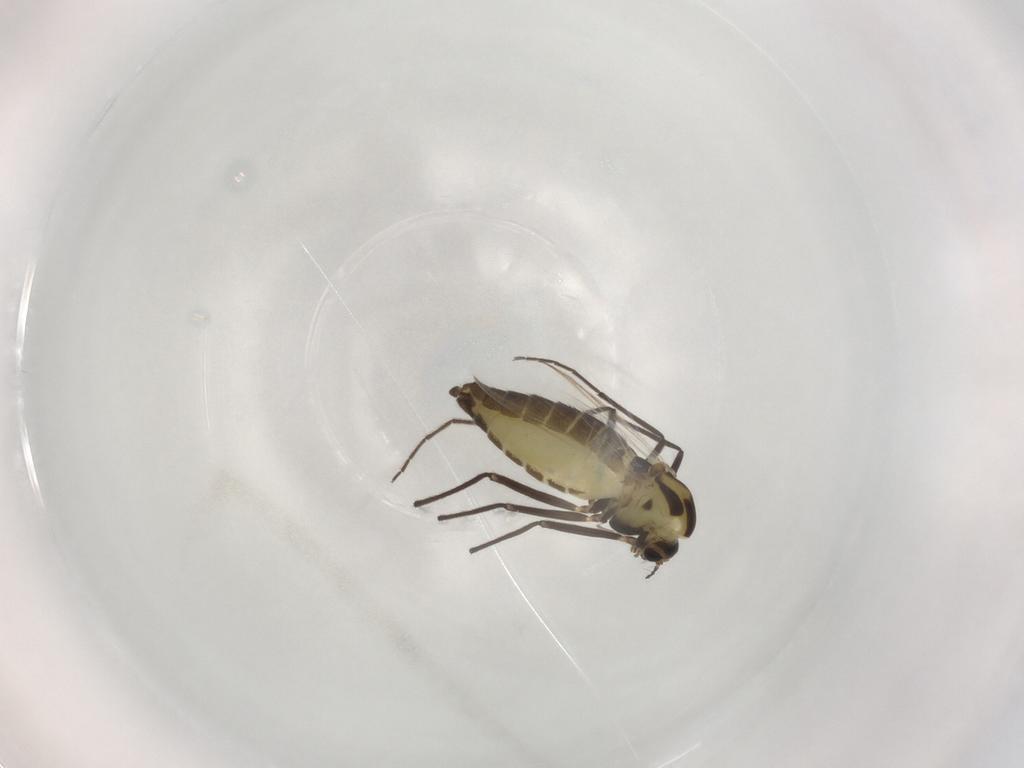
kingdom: Animalia
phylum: Arthropoda
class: Insecta
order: Diptera
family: Chironomidae
